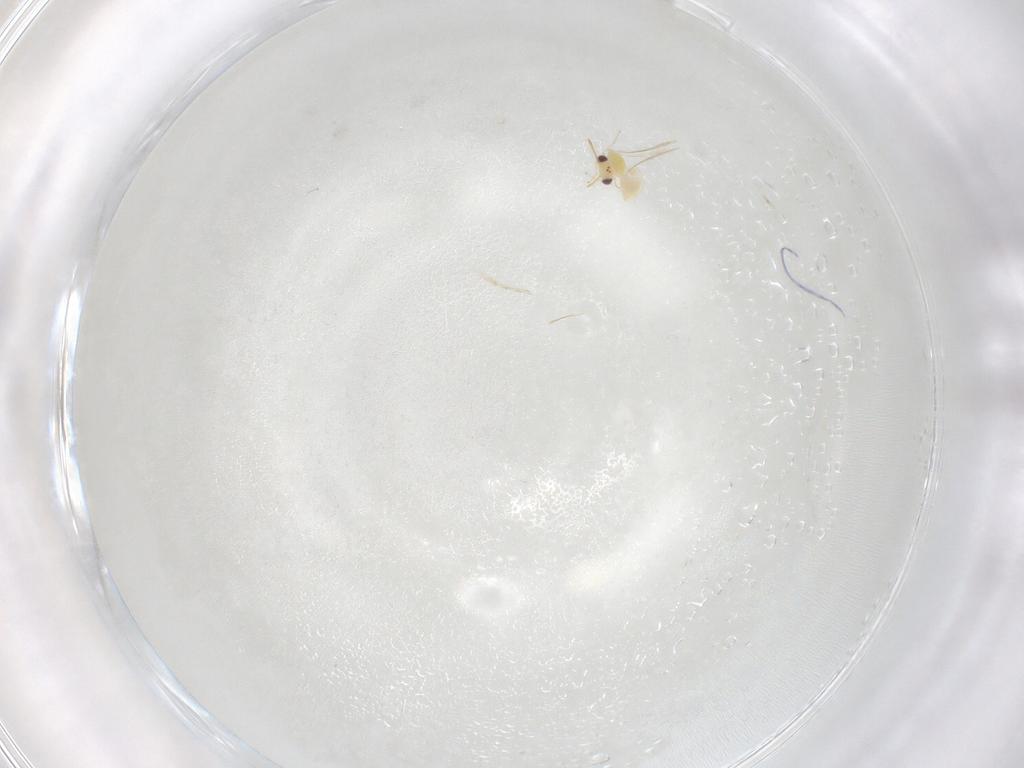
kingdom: Animalia
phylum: Arthropoda
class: Insecta
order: Hymenoptera
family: Aphelinidae
